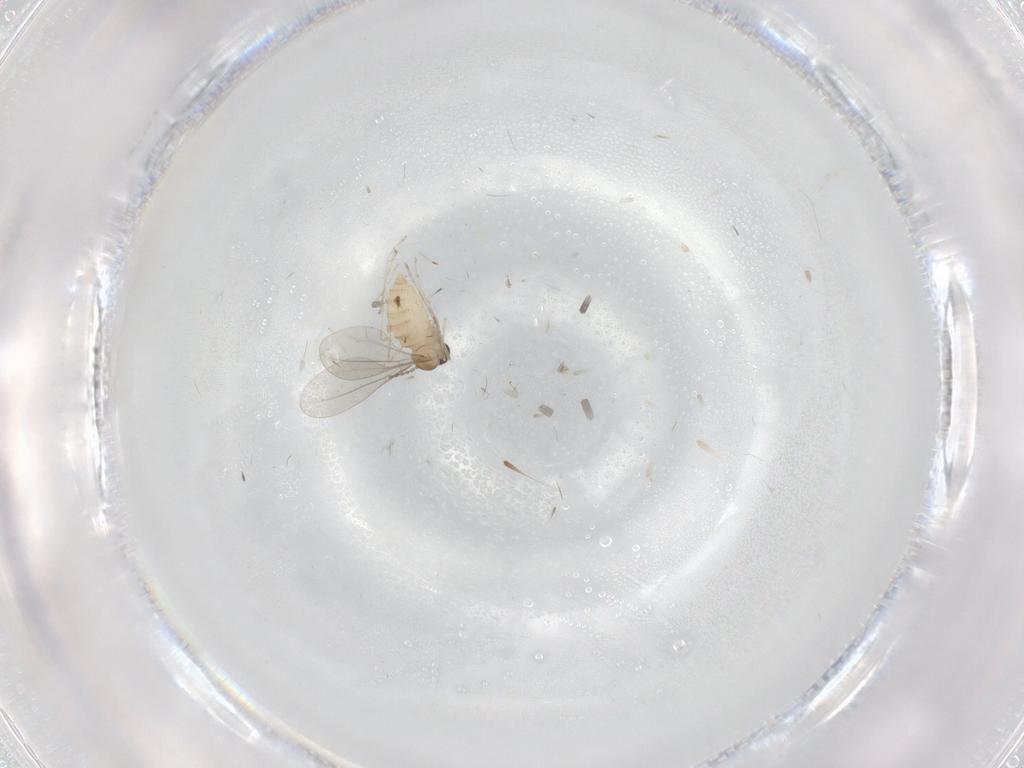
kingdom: Animalia
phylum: Arthropoda
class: Insecta
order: Diptera
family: Cecidomyiidae
